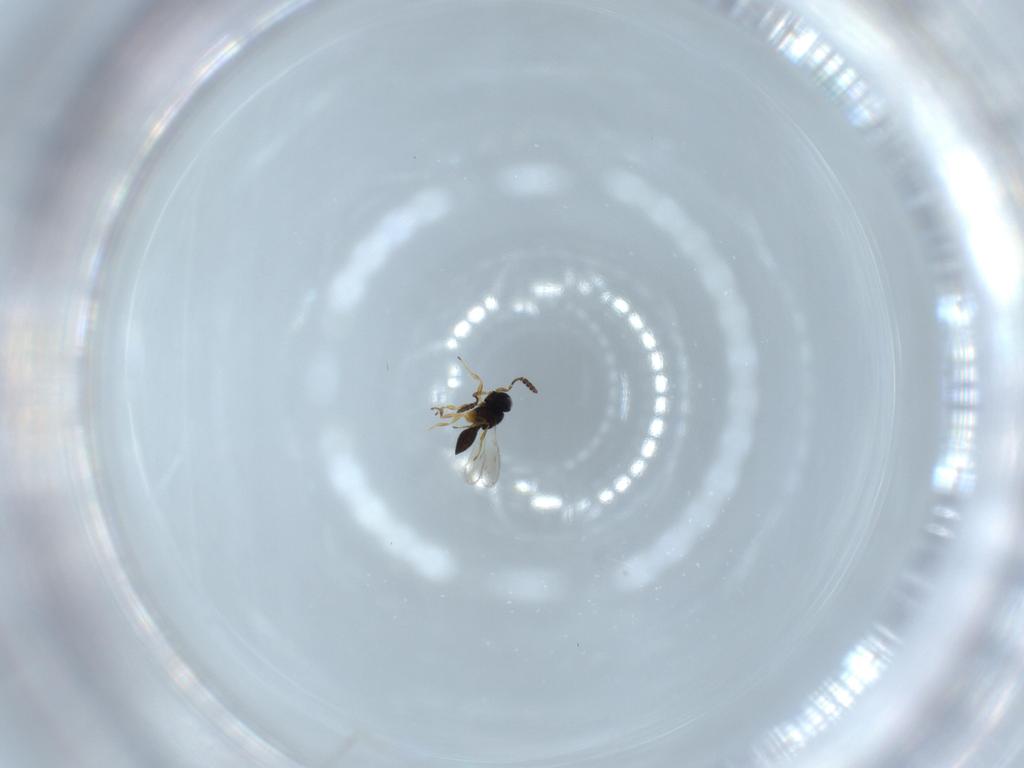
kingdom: Animalia
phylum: Arthropoda
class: Insecta
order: Hymenoptera
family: Scelionidae
